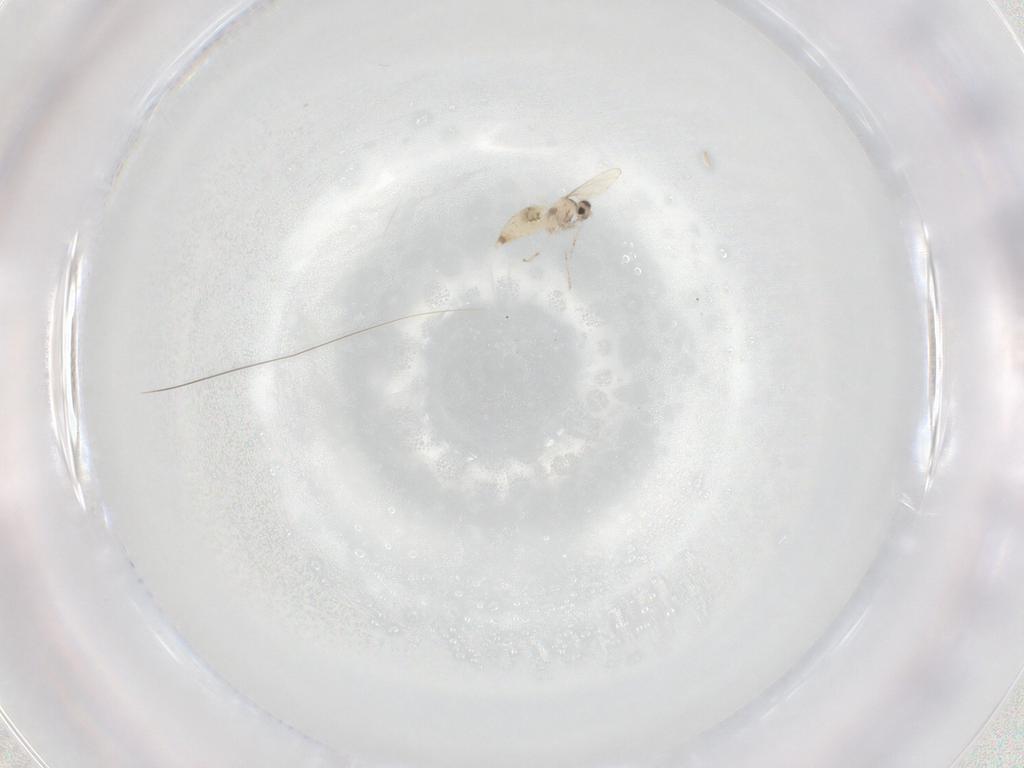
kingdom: Animalia
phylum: Arthropoda
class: Insecta
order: Diptera
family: Cecidomyiidae
